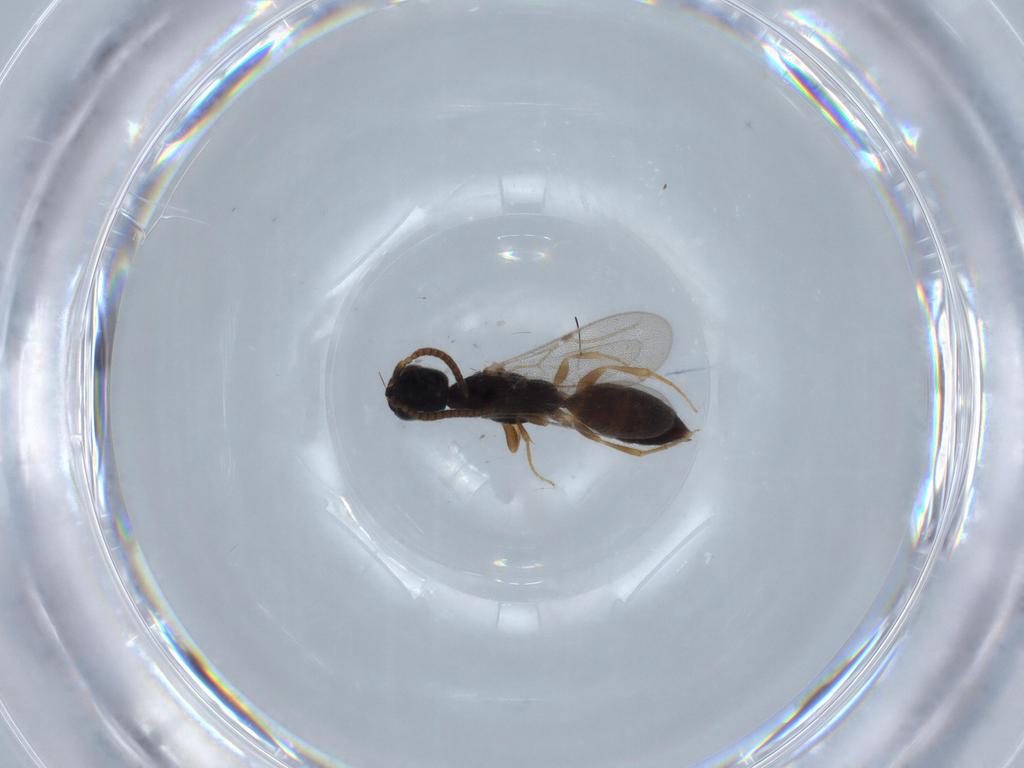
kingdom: Animalia
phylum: Arthropoda
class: Insecta
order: Hymenoptera
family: Bethylidae
